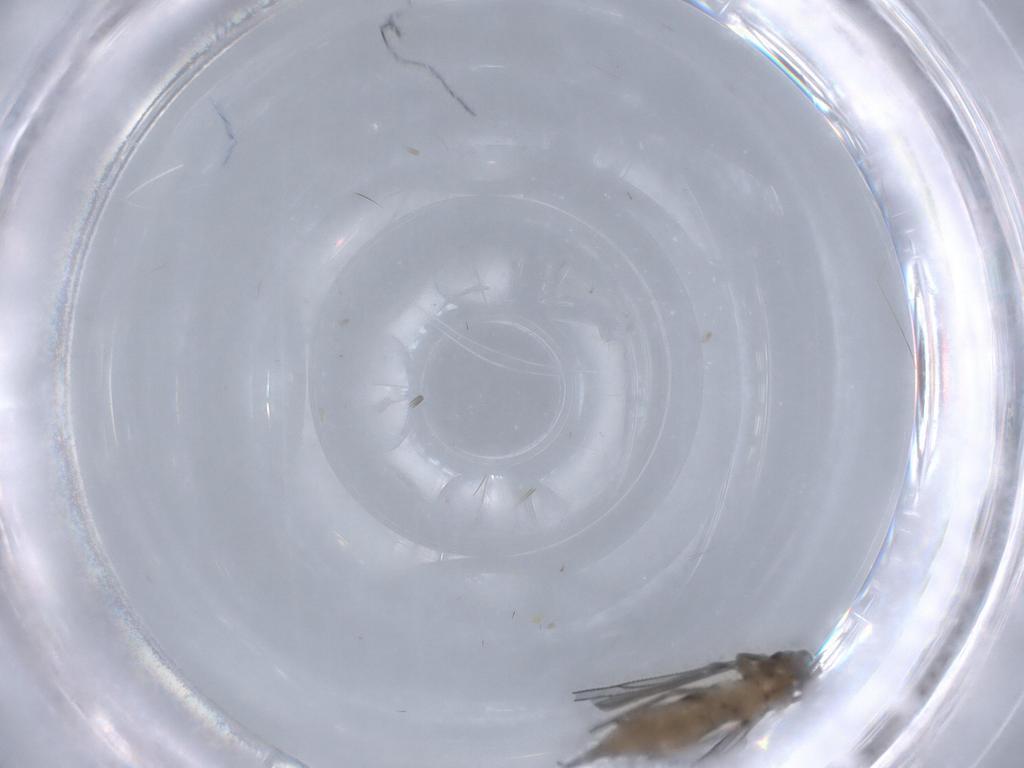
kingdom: Animalia
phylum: Arthropoda
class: Insecta
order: Diptera
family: Sciaridae
